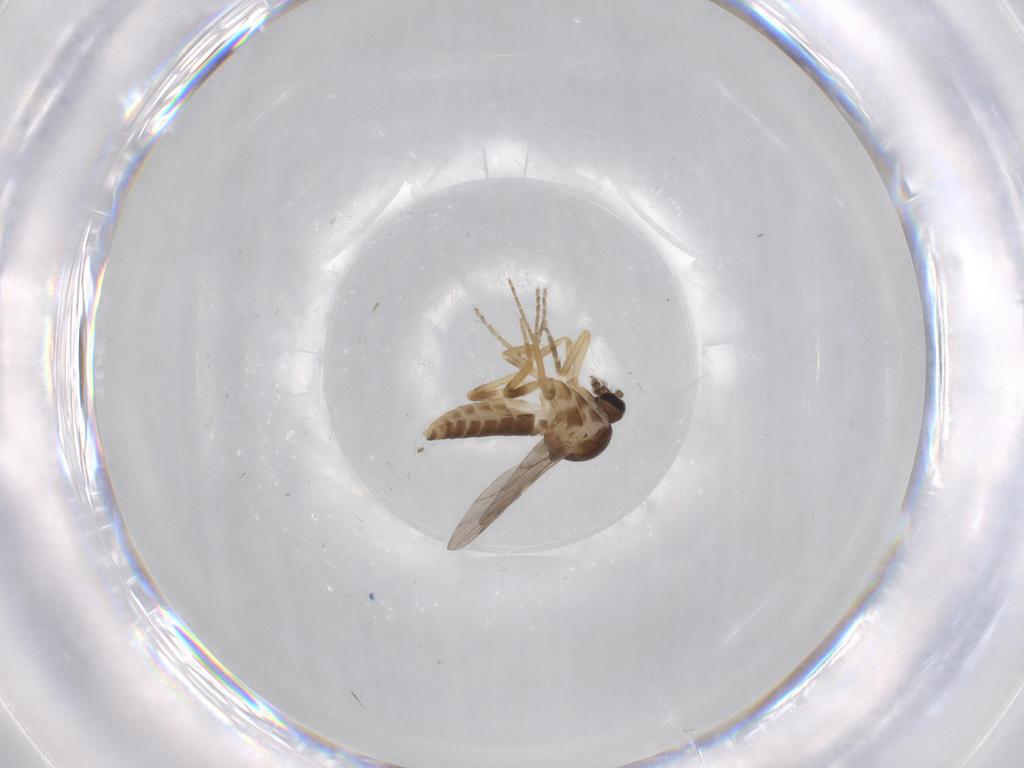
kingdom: Animalia
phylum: Arthropoda
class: Insecta
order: Diptera
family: Ceratopogonidae
